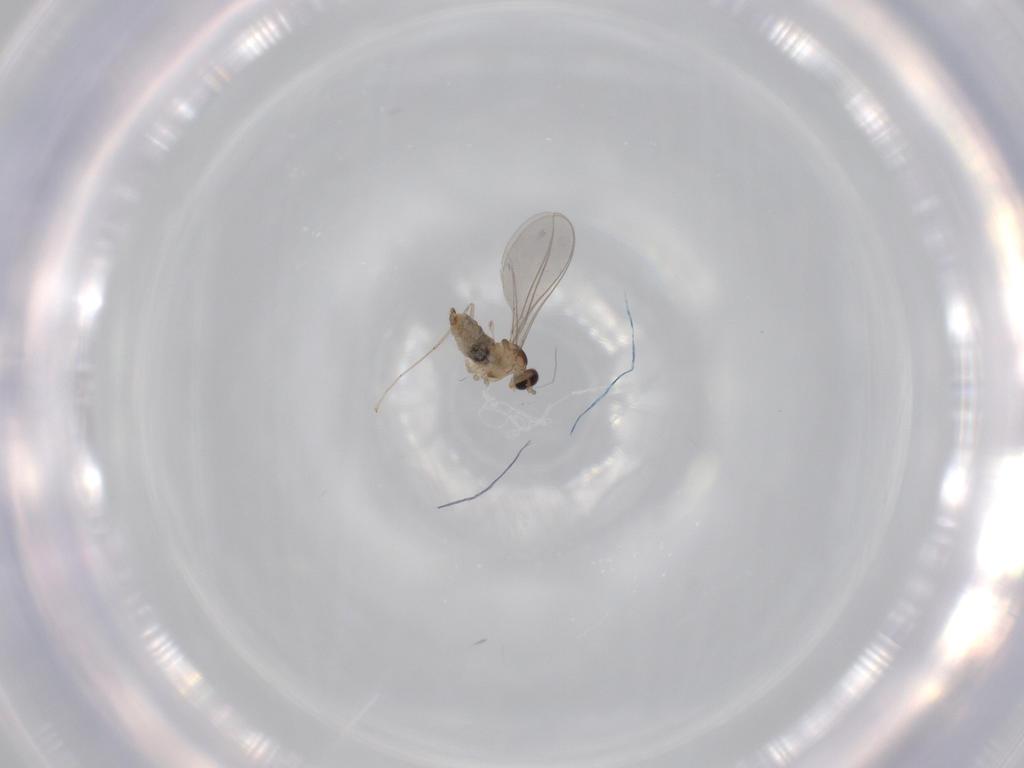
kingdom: Animalia
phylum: Arthropoda
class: Insecta
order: Diptera
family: Cecidomyiidae
